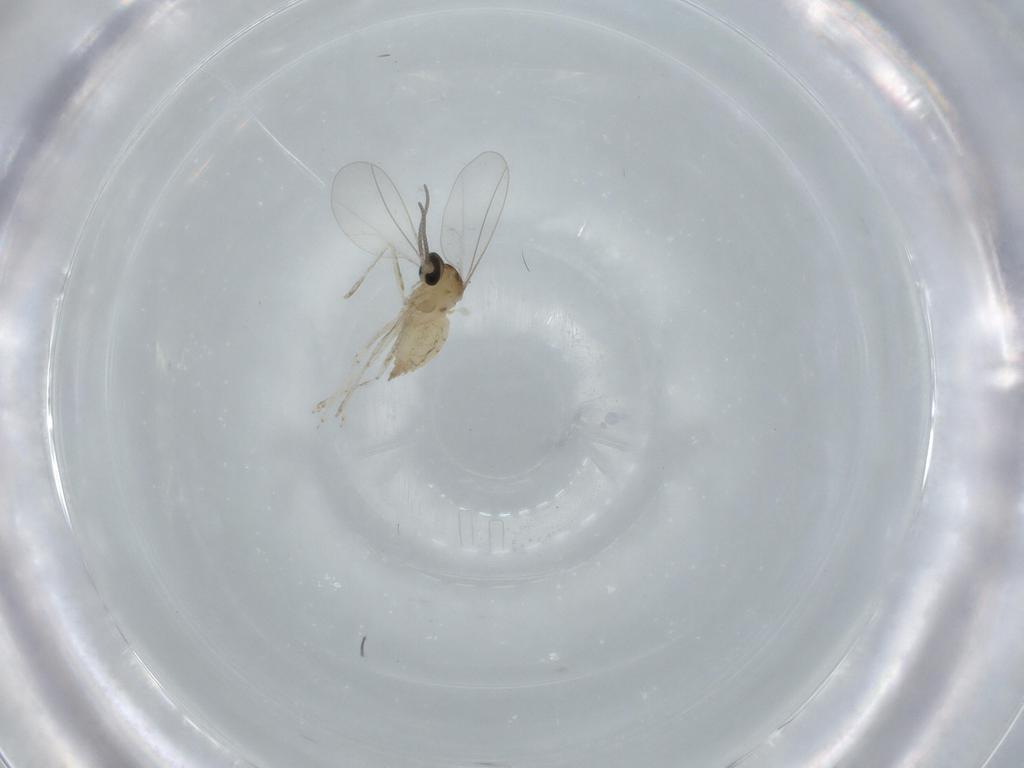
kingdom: Animalia
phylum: Arthropoda
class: Insecta
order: Diptera
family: Cecidomyiidae
